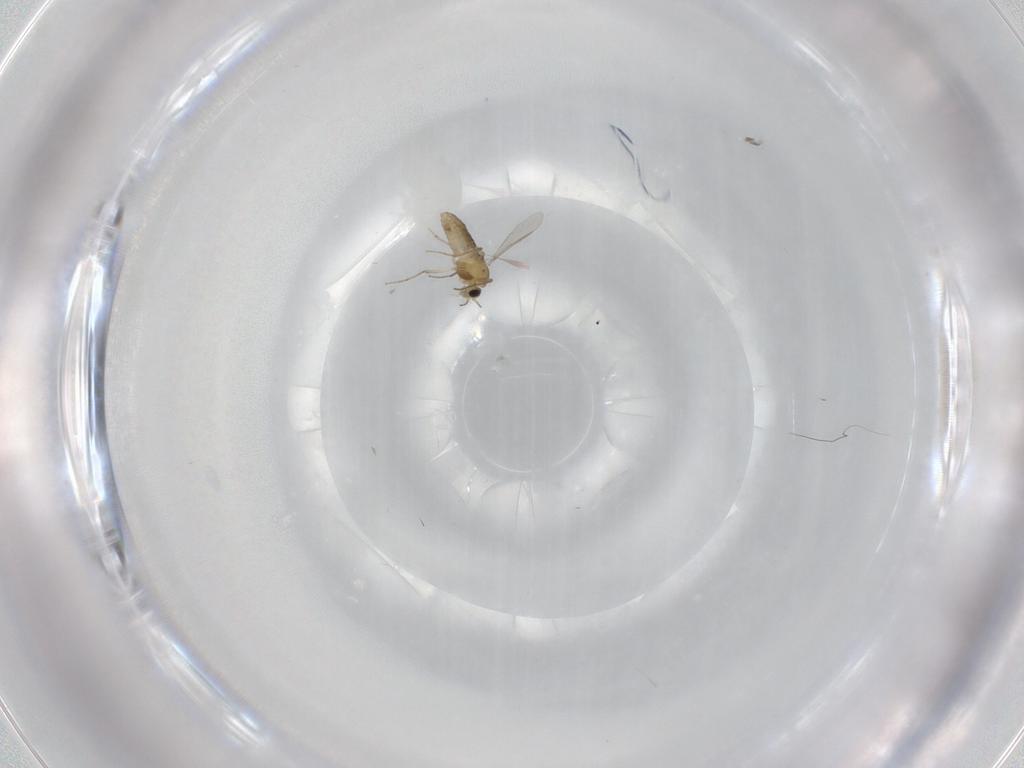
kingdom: Animalia
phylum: Arthropoda
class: Insecta
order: Diptera
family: Chironomidae
